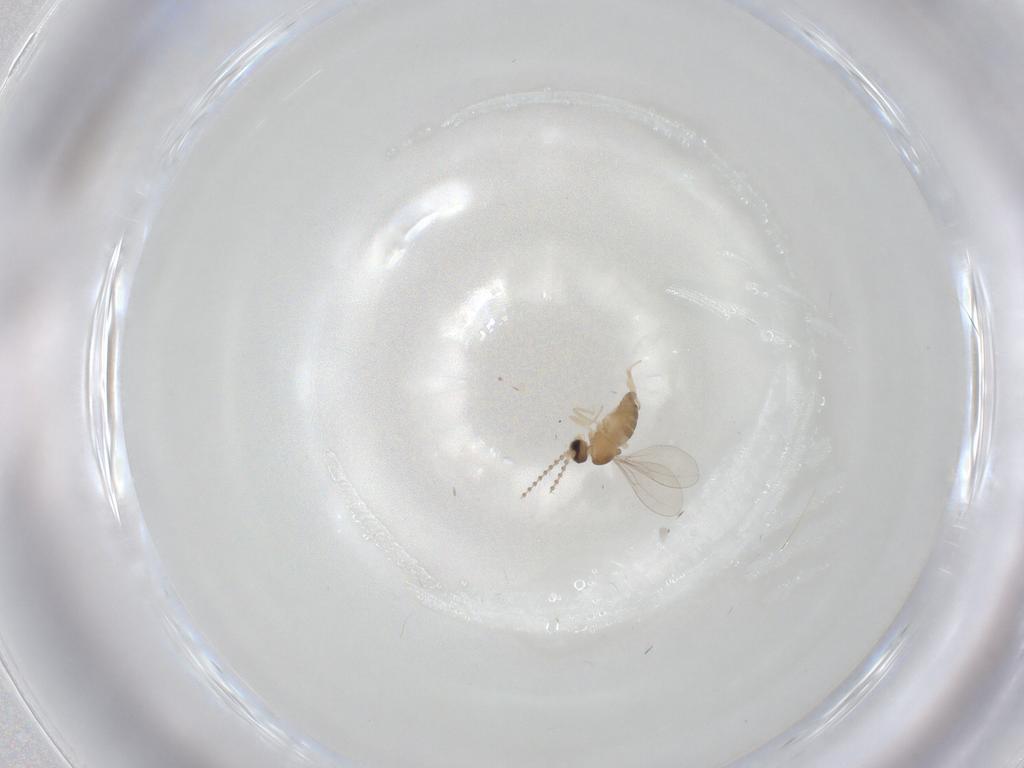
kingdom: Animalia
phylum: Arthropoda
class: Insecta
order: Diptera
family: Cecidomyiidae
